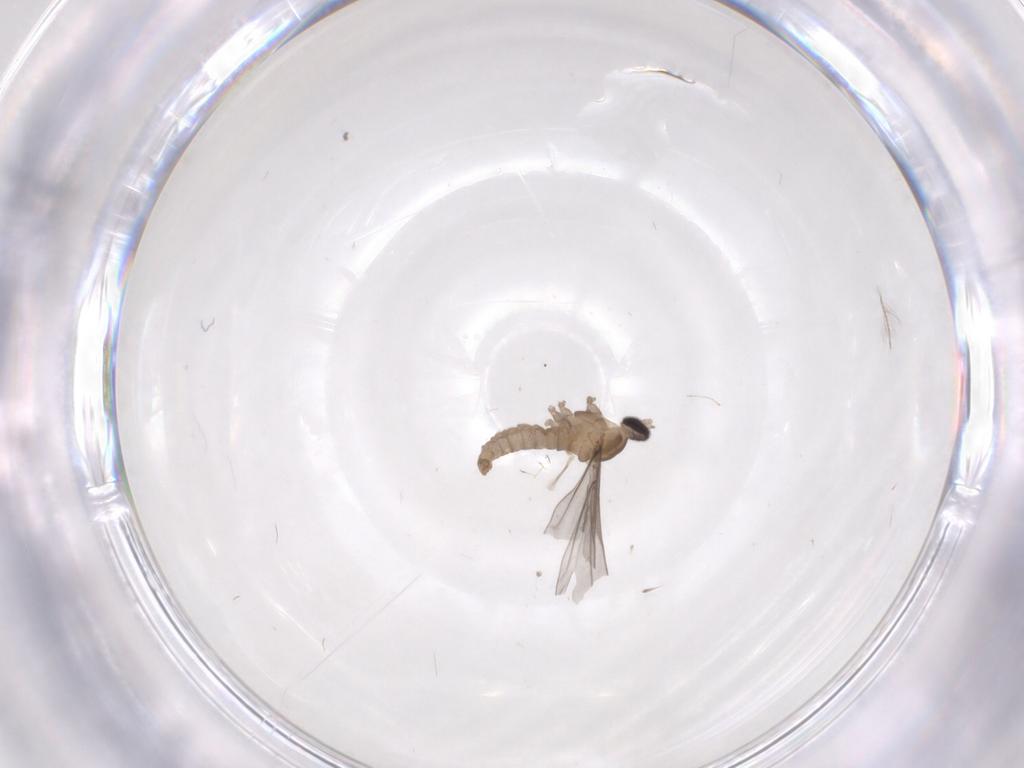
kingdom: Animalia
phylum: Arthropoda
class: Insecta
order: Diptera
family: Cecidomyiidae
